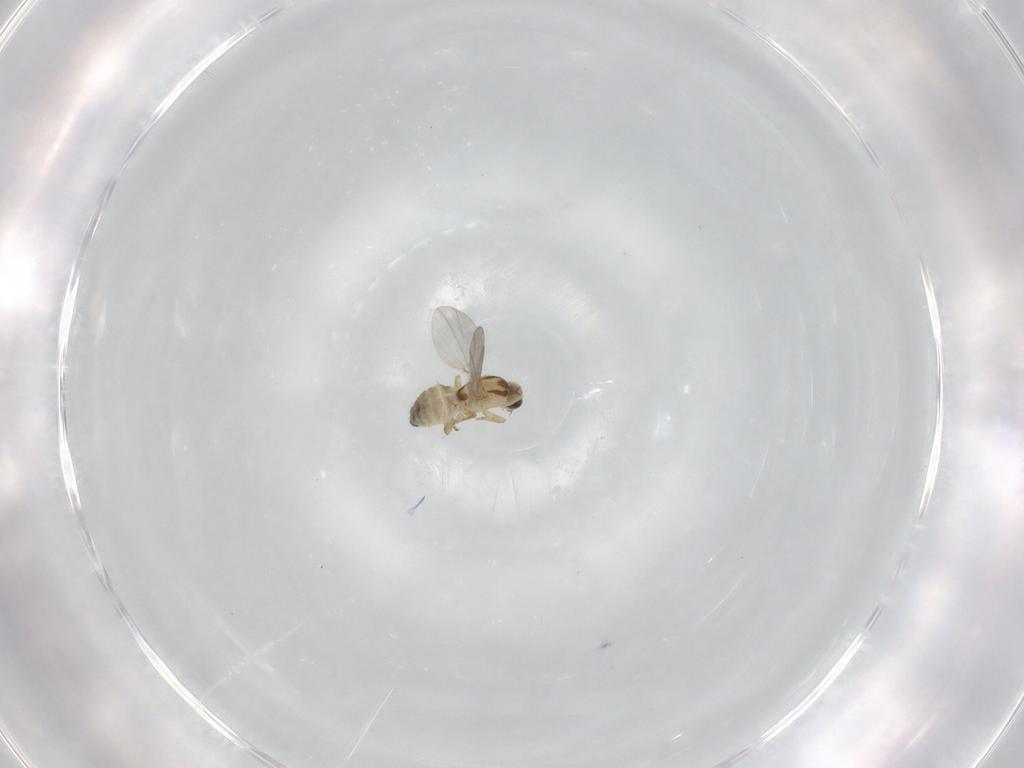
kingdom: Animalia
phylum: Arthropoda
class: Insecta
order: Diptera
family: Agromyzidae
